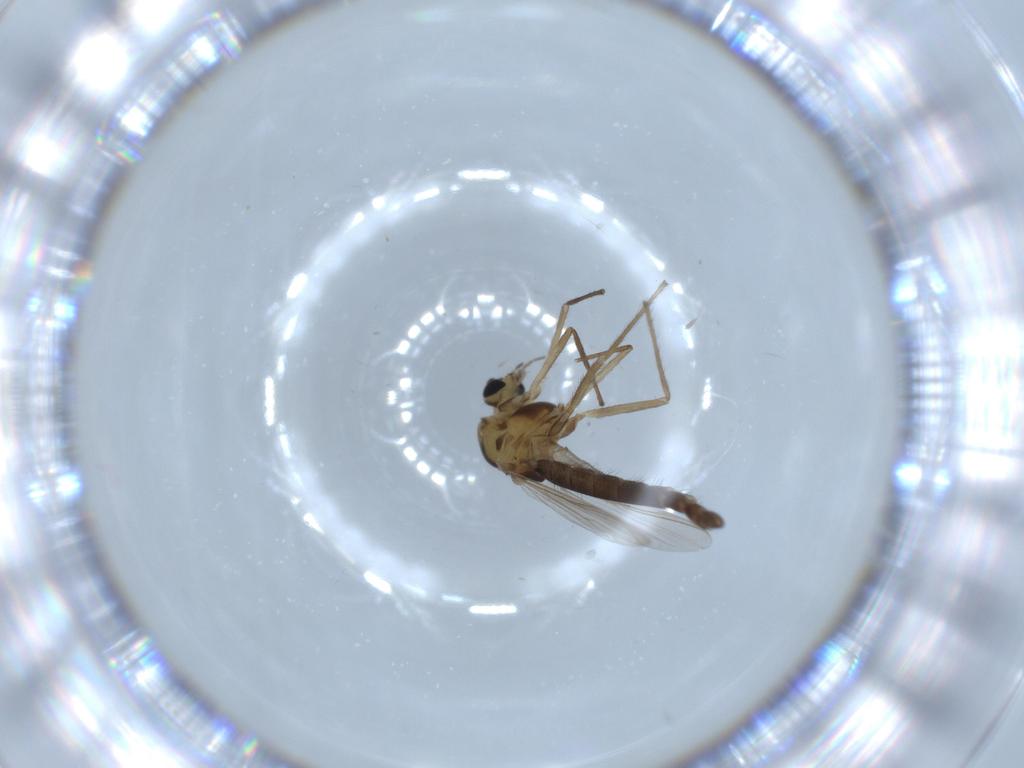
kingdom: Animalia
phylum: Arthropoda
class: Insecta
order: Diptera
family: Chironomidae
